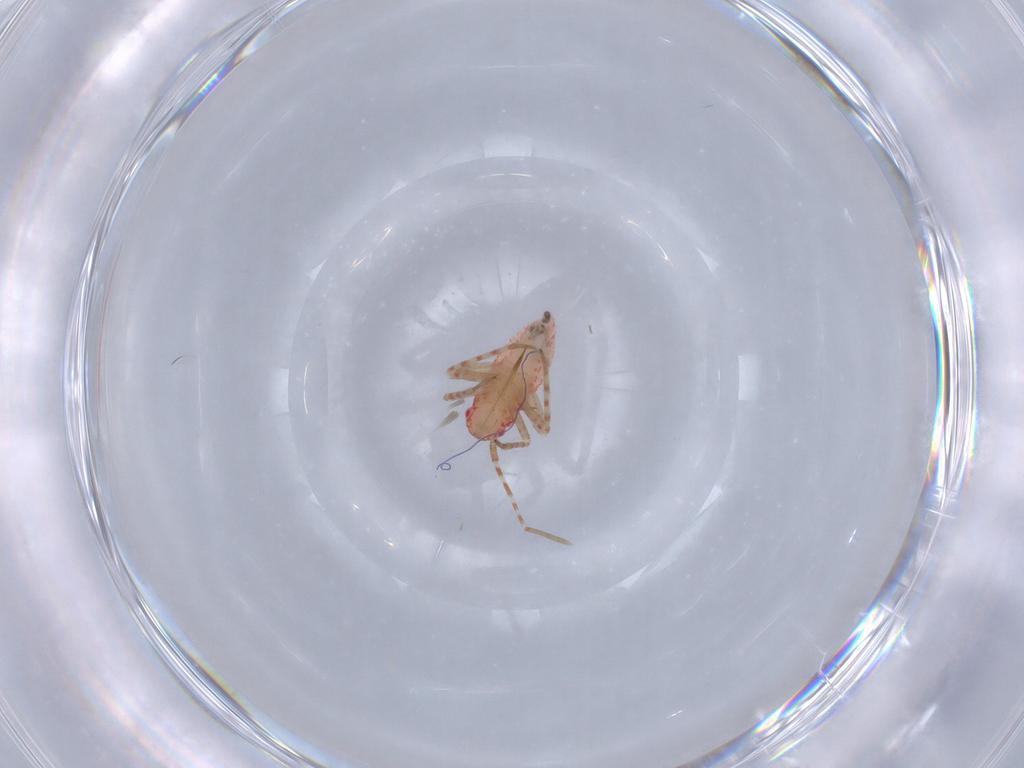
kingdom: Animalia
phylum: Arthropoda
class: Insecta
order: Hemiptera
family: Miridae
